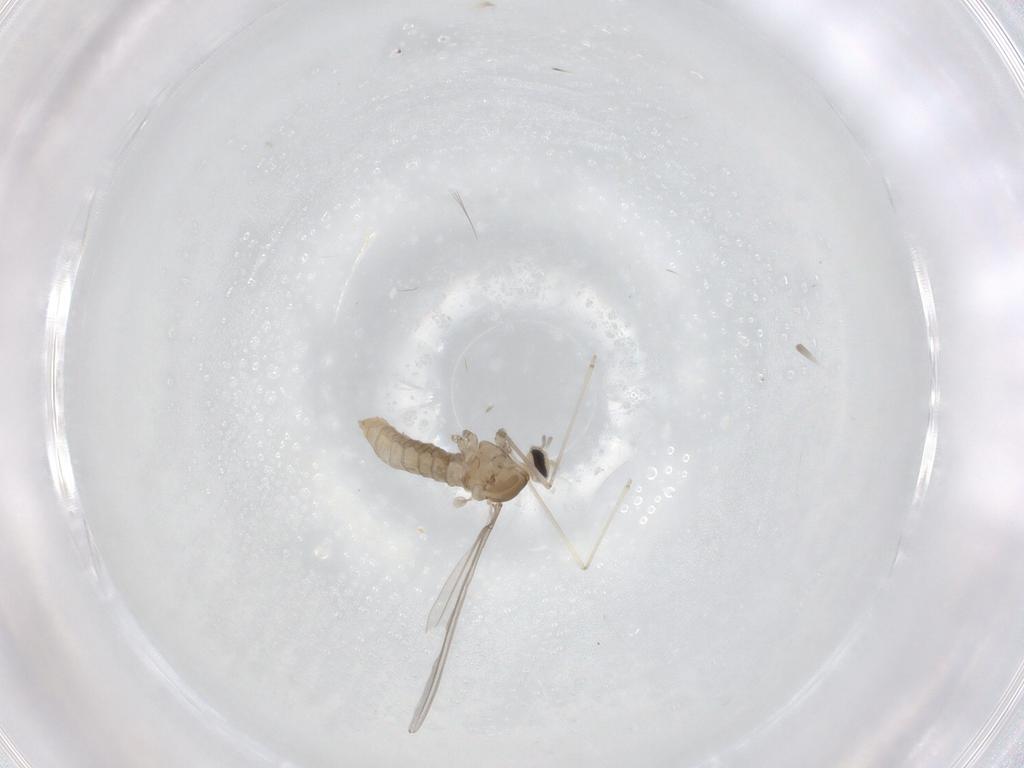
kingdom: Animalia
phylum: Arthropoda
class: Insecta
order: Diptera
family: Cecidomyiidae
